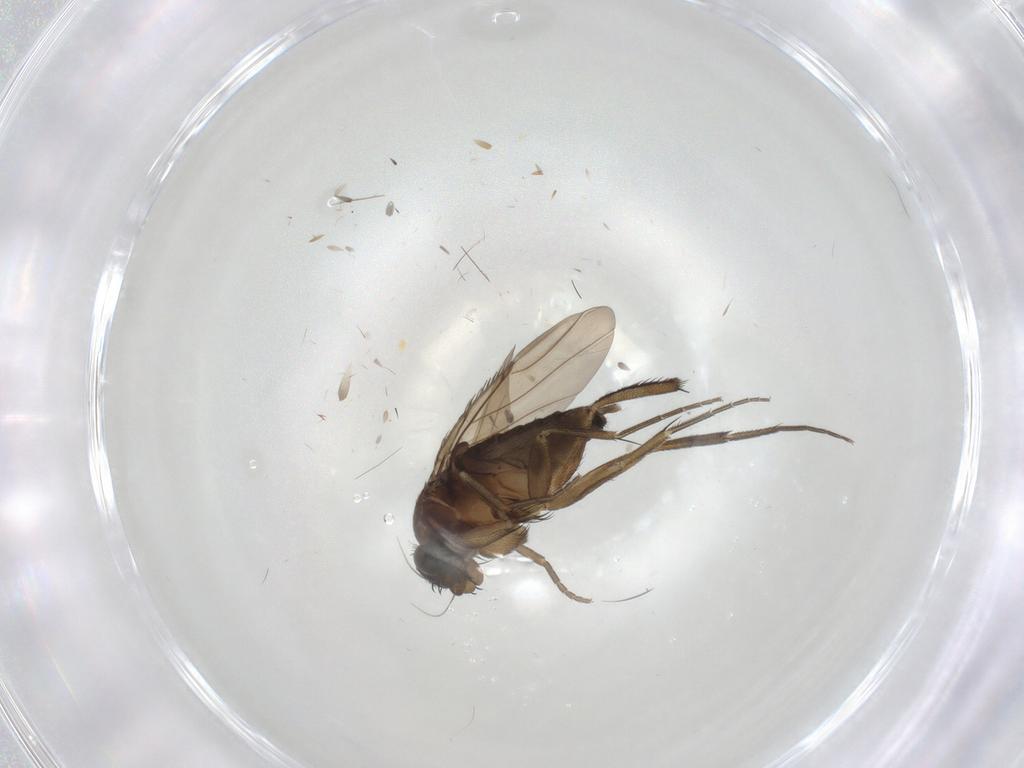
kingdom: Animalia
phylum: Arthropoda
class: Insecta
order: Diptera
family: Phoridae
